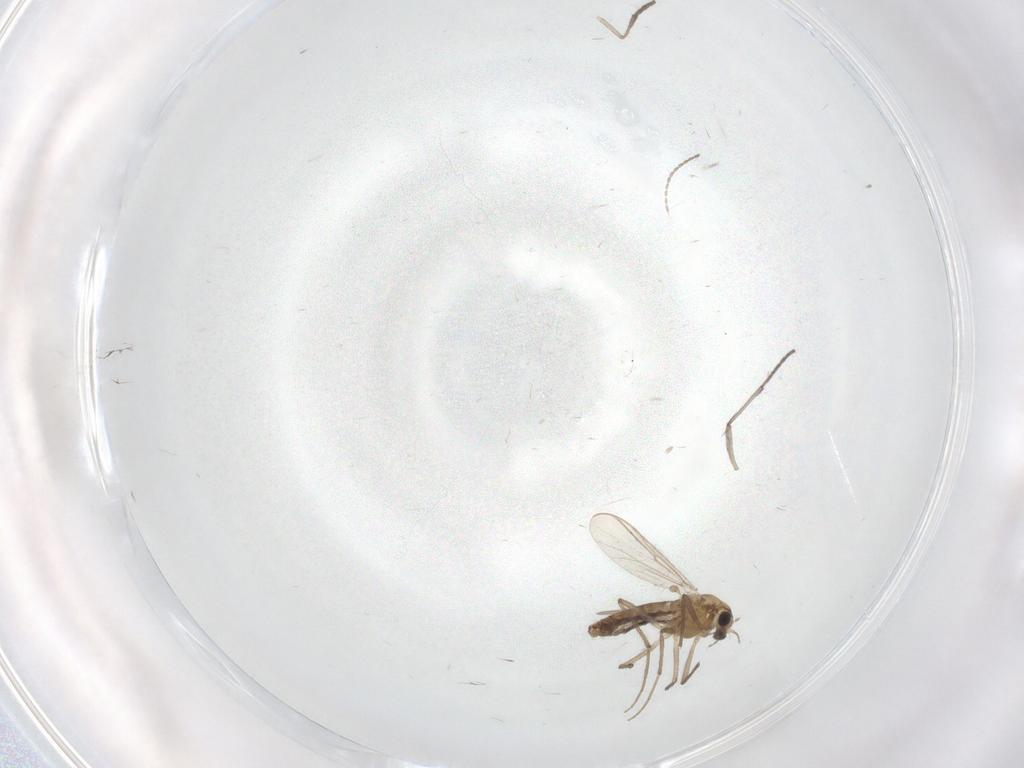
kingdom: Animalia
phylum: Arthropoda
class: Insecta
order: Diptera
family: Chironomidae
